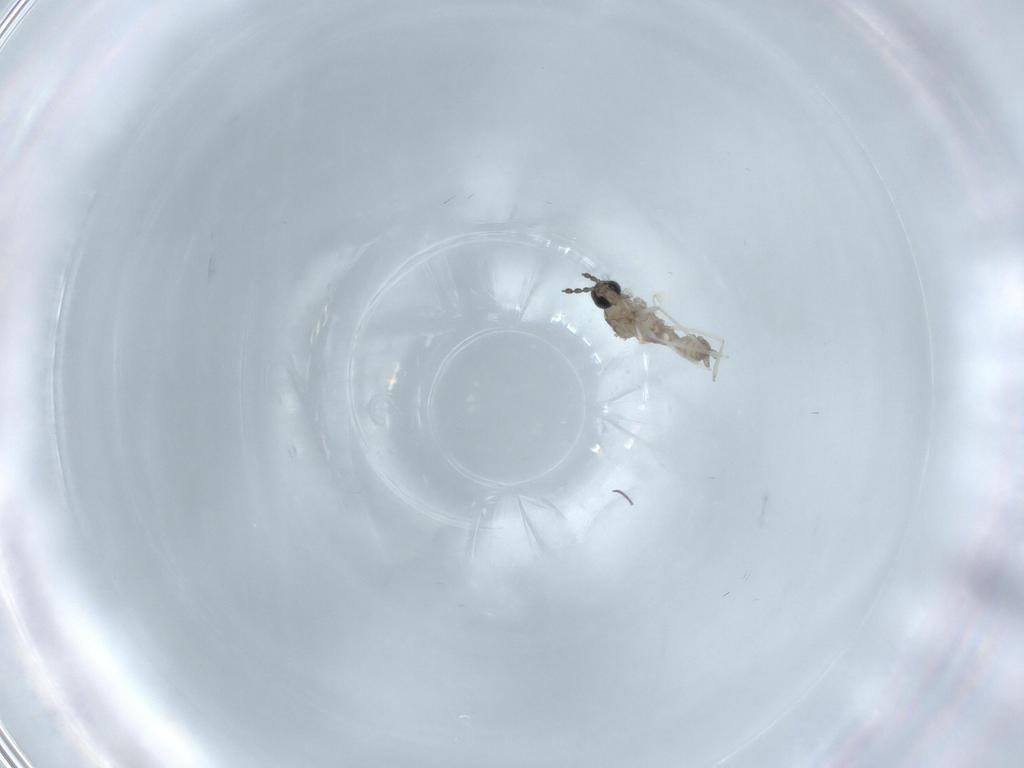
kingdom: Animalia
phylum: Arthropoda
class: Insecta
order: Diptera
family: Cecidomyiidae
